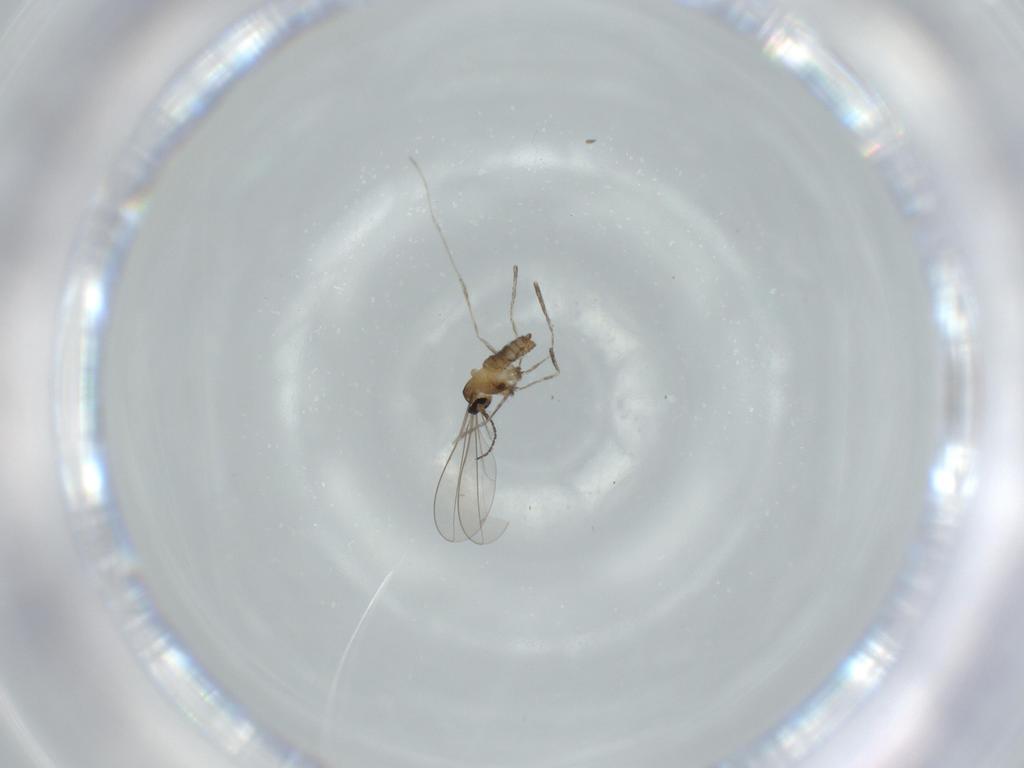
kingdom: Animalia
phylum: Arthropoda
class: Insecta
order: Diptera
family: Cecidomyiidae
